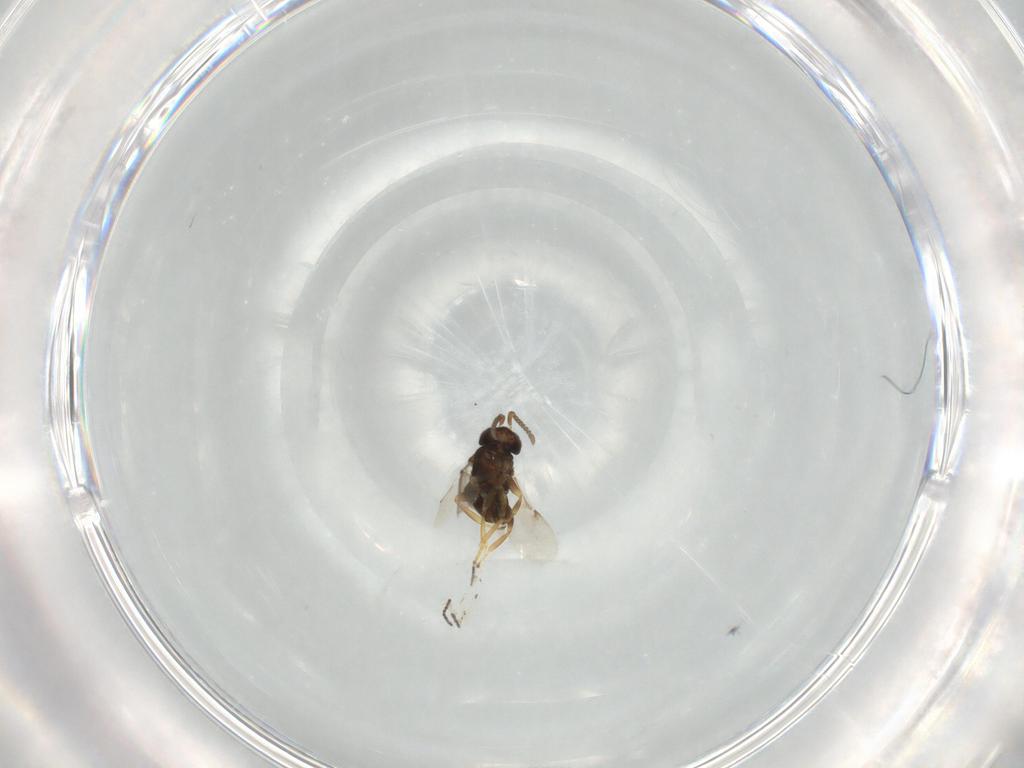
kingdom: Animalia
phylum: Arthropoda
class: Insecta
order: Hymenoptera
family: Scelionidae
